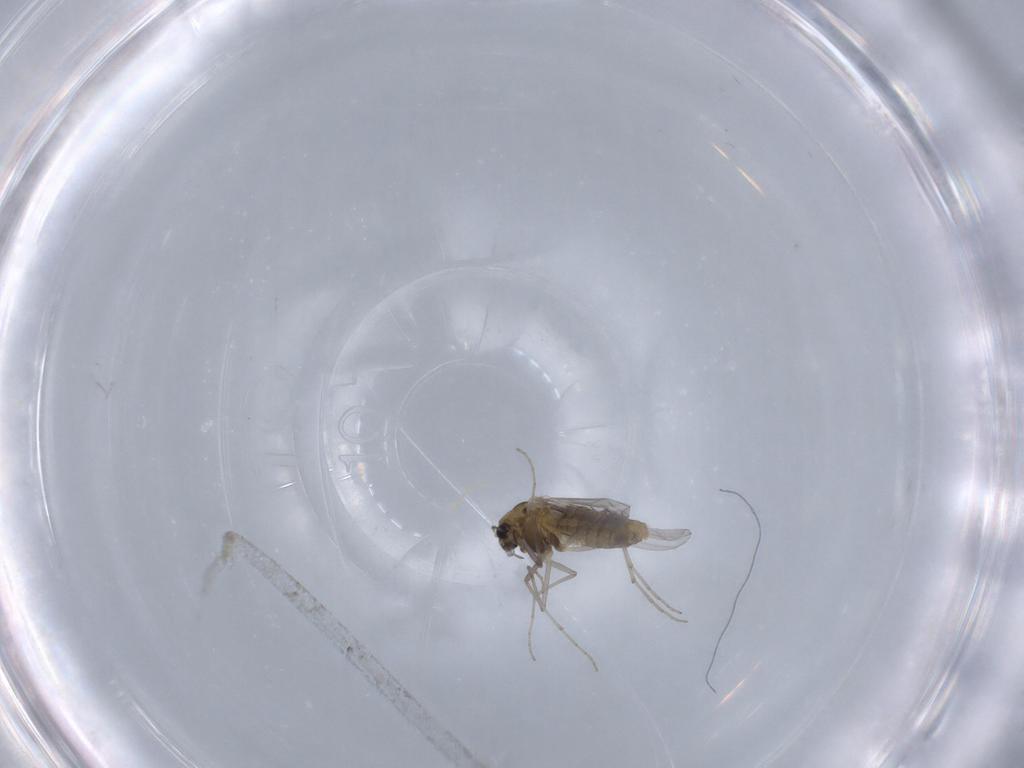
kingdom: Animalia
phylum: Arthropoda
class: Insecta
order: Diptera
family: Chironomidae
